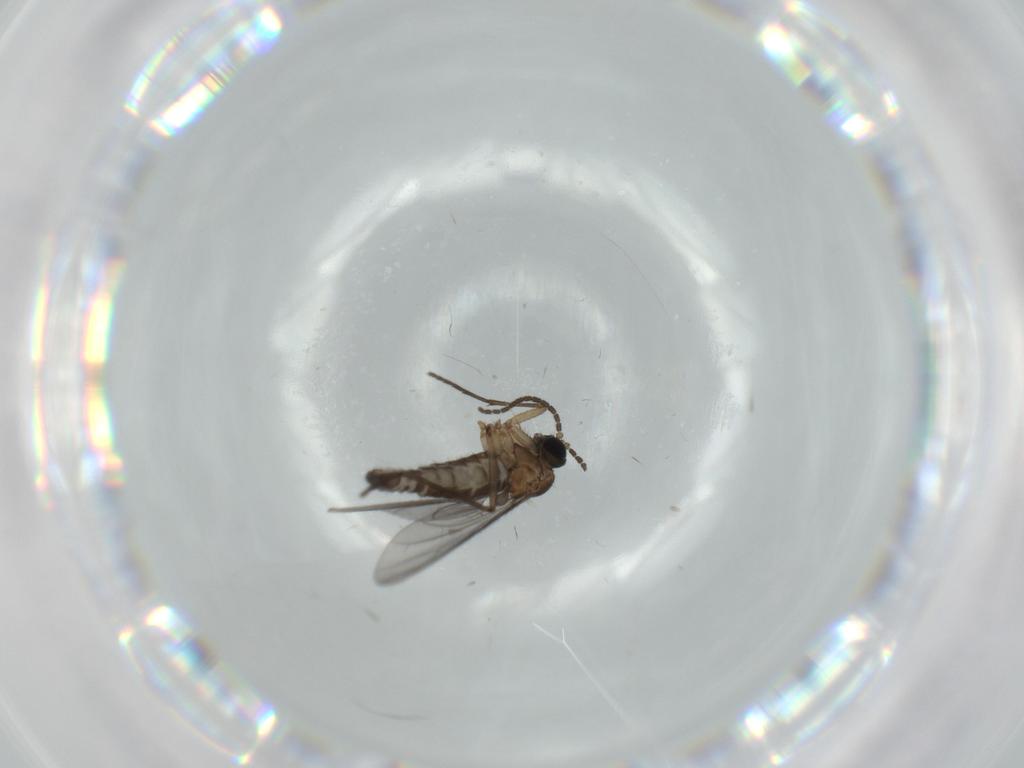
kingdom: Animalia
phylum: Arthropoda
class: Insecta
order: Diptera
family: Sciaridae
